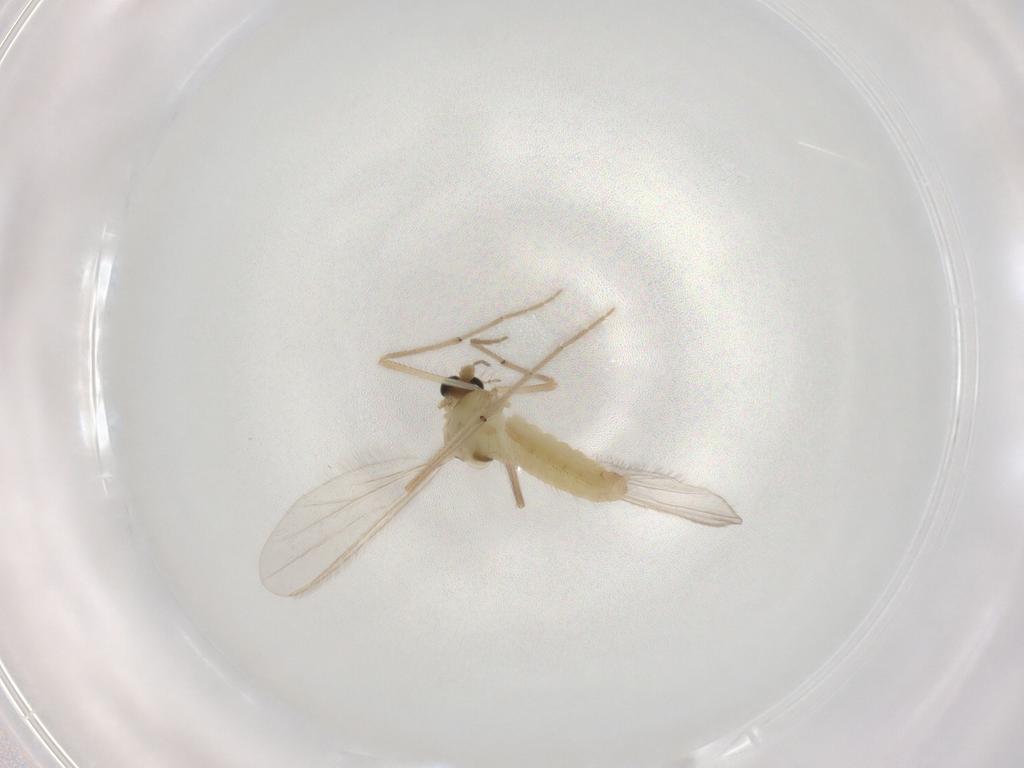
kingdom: Animalia
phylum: Arthropoda
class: Insecta
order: Diptera
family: Chironomidae
